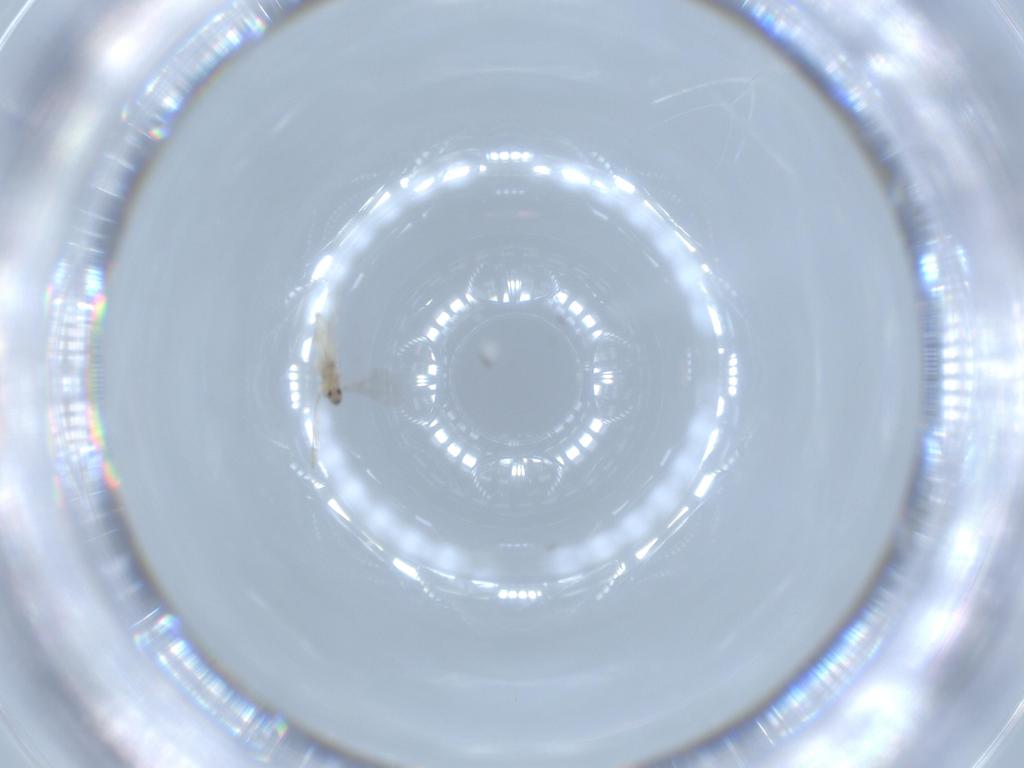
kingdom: Animalia
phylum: Arthropoda
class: Insecta
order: Diptera
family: Cecidomyiidae
